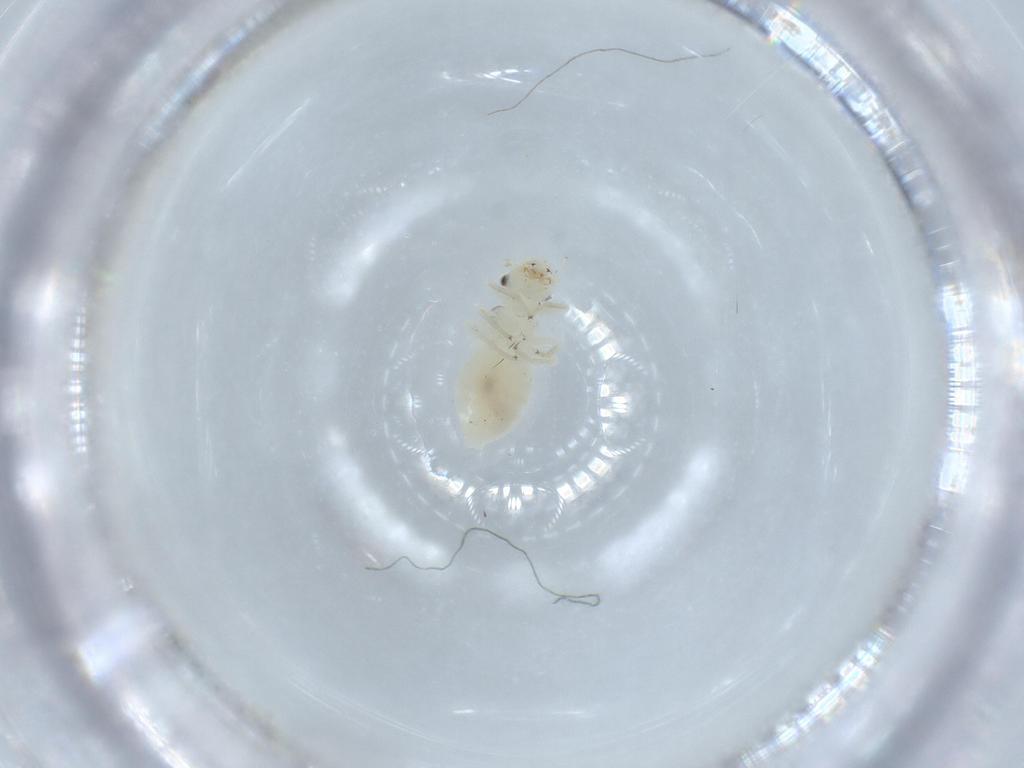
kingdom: Animalia
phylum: Arthropoda
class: Insecta
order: Psocodea
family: Caeciliusidae
